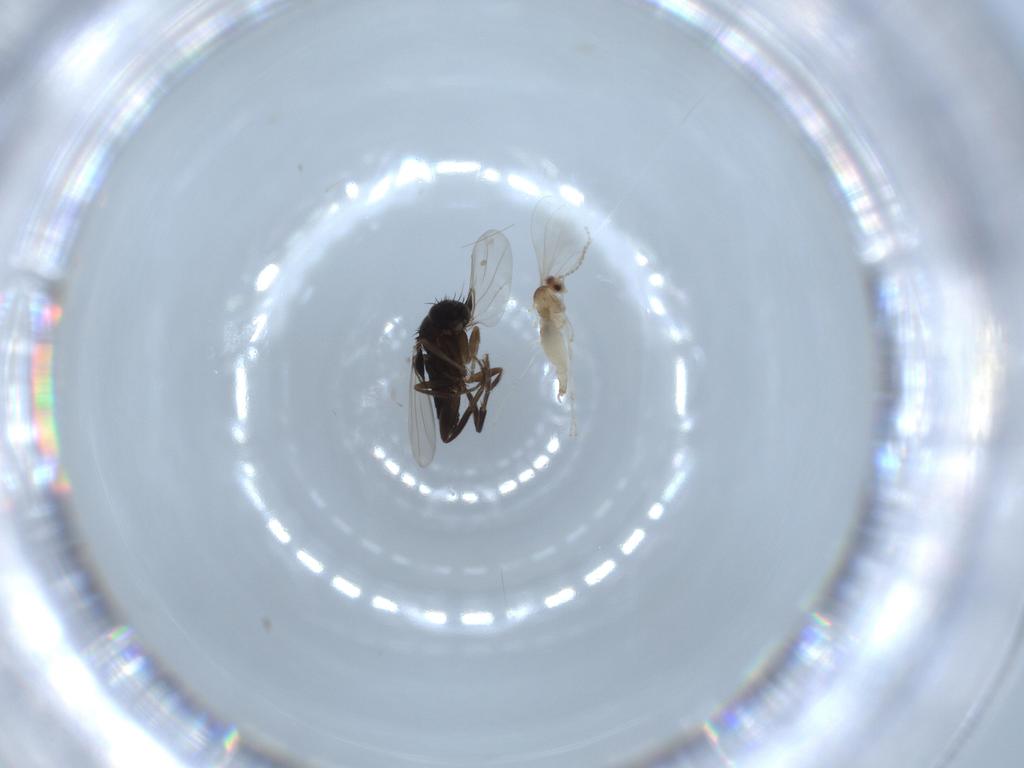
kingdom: Animalia
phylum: Arthropoda
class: Insecta
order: Diptera
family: Cecidomyiidae
